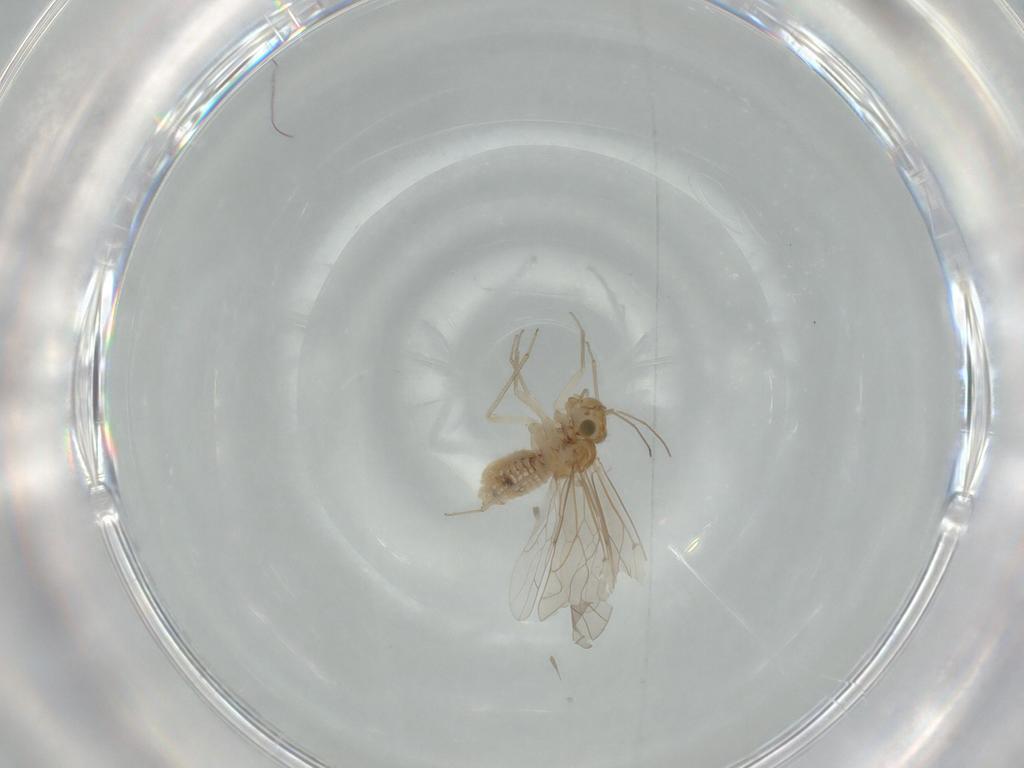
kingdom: Animalia
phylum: Arthropoda
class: Insecta
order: Psocodea
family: Lachesillidae
